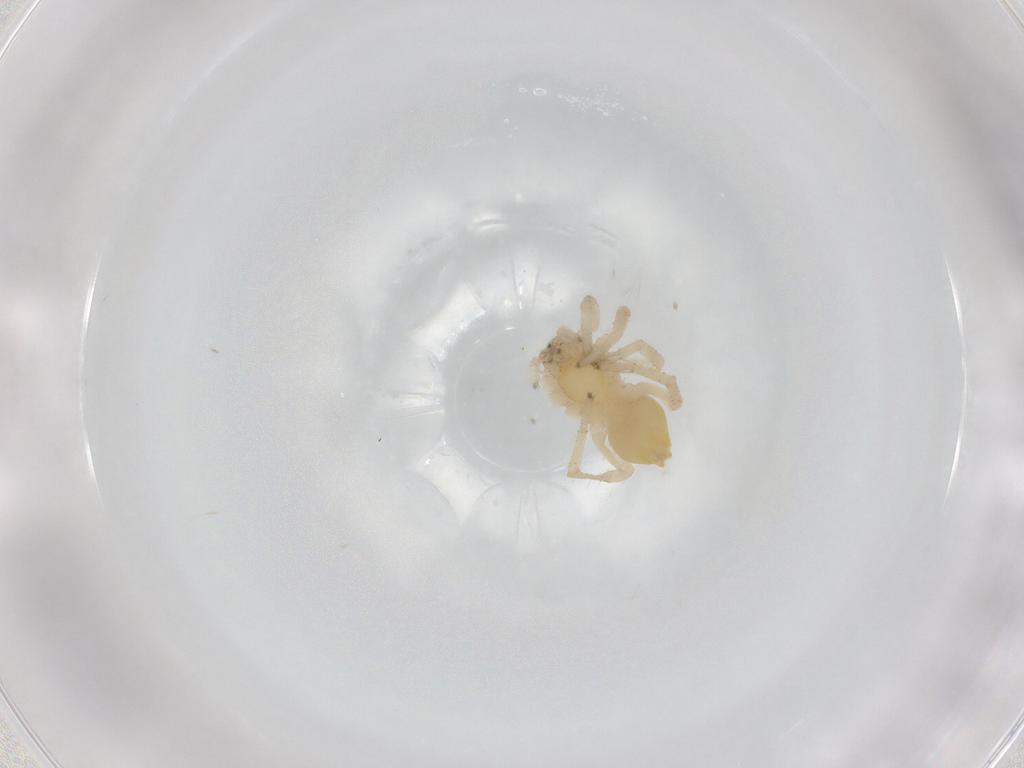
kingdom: Animalia
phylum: Arthropoda
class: Arachnida
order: Araneae
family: Clubionidae
